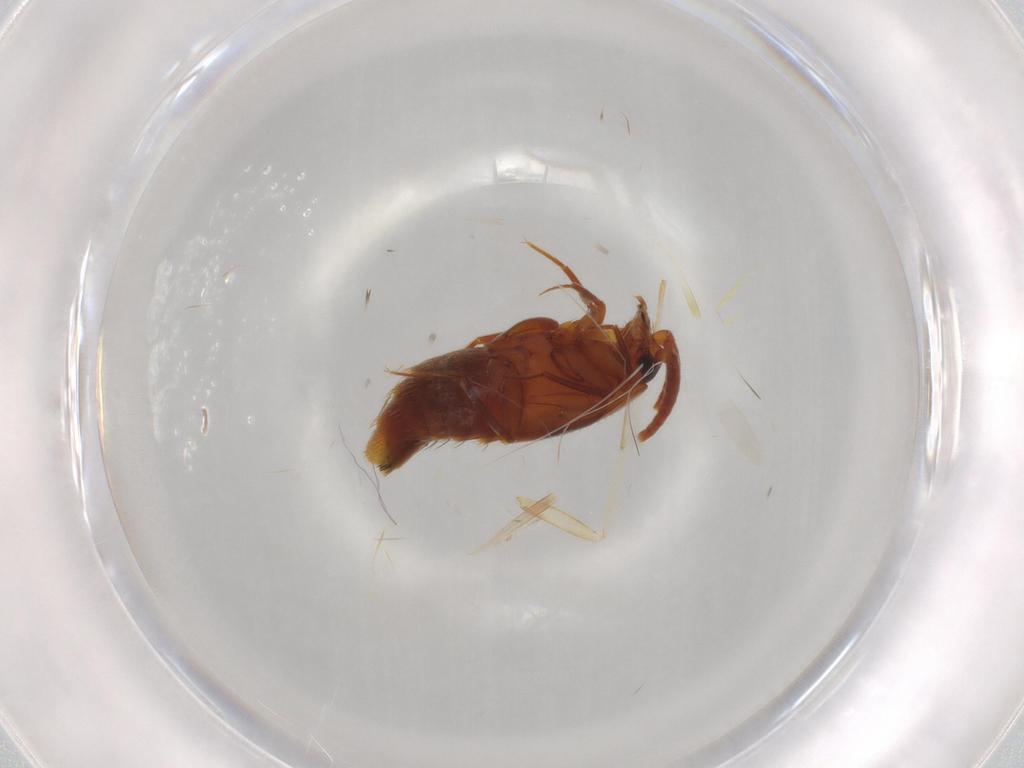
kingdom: Animalia
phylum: Arthropoda
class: Insecta
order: Coleoptera
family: Staphylinidae
